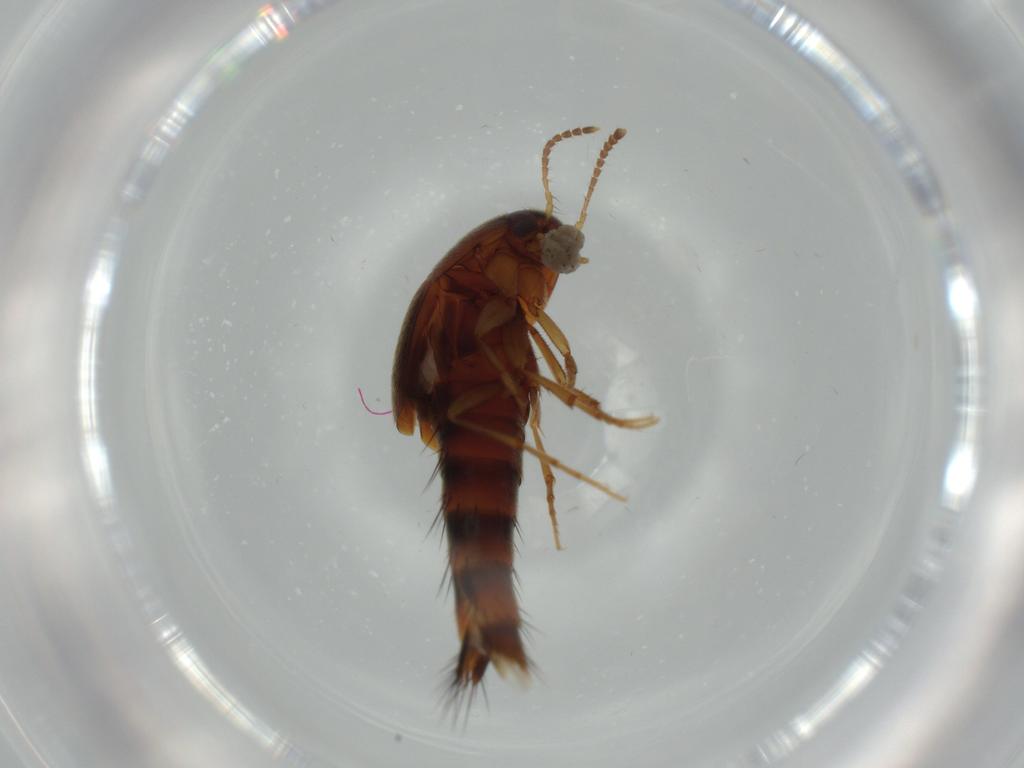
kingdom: Animalia
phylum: Arthropoda
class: Insecta
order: Coleoptera
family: Staphylinidae
